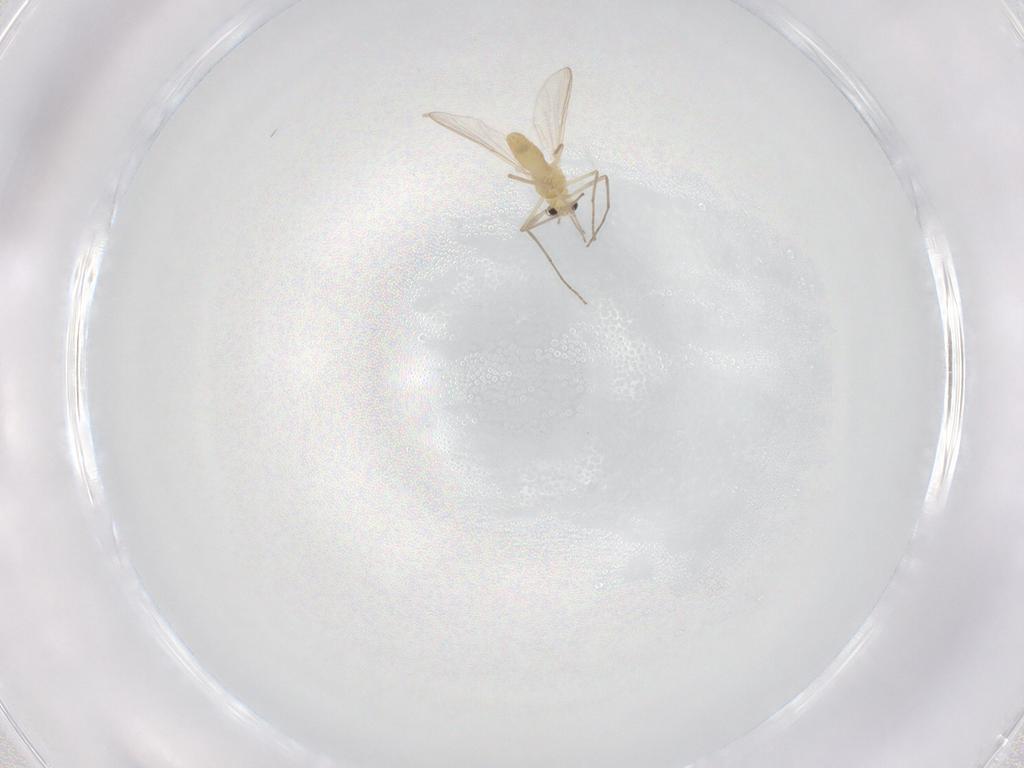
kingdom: Animalia
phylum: Arthropoda
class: Insecta
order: Diptera
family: Chironomidae
